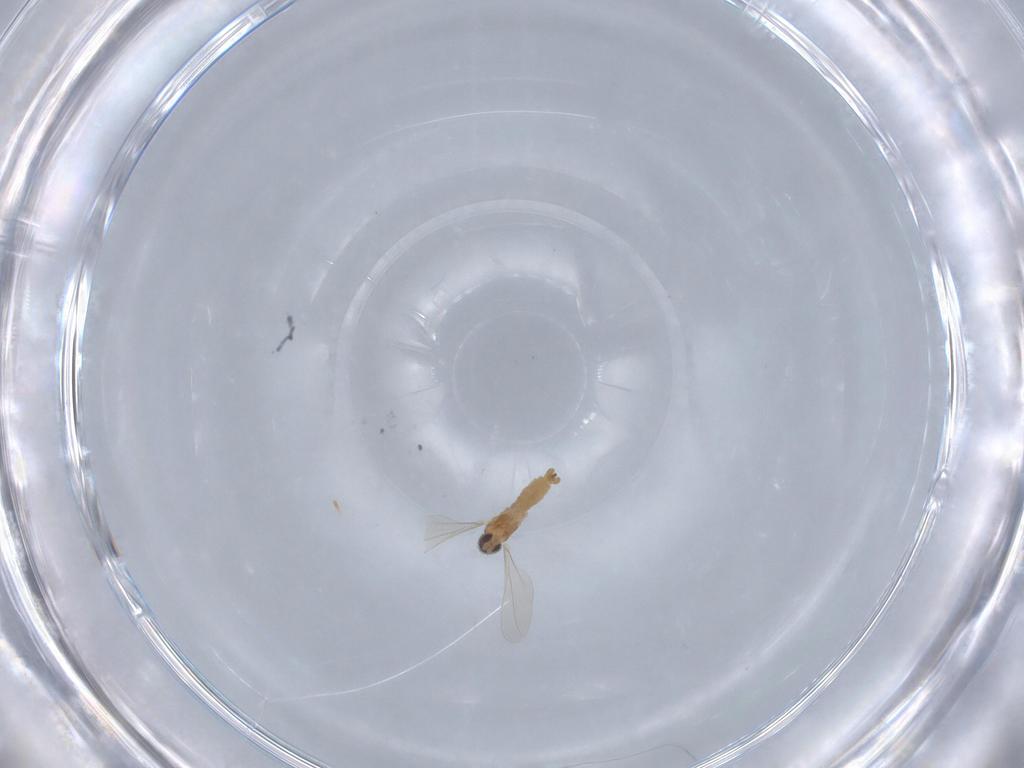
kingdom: Animalia
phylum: Arthropoda
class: Insecta
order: Diptera
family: Cecidomyiidae
